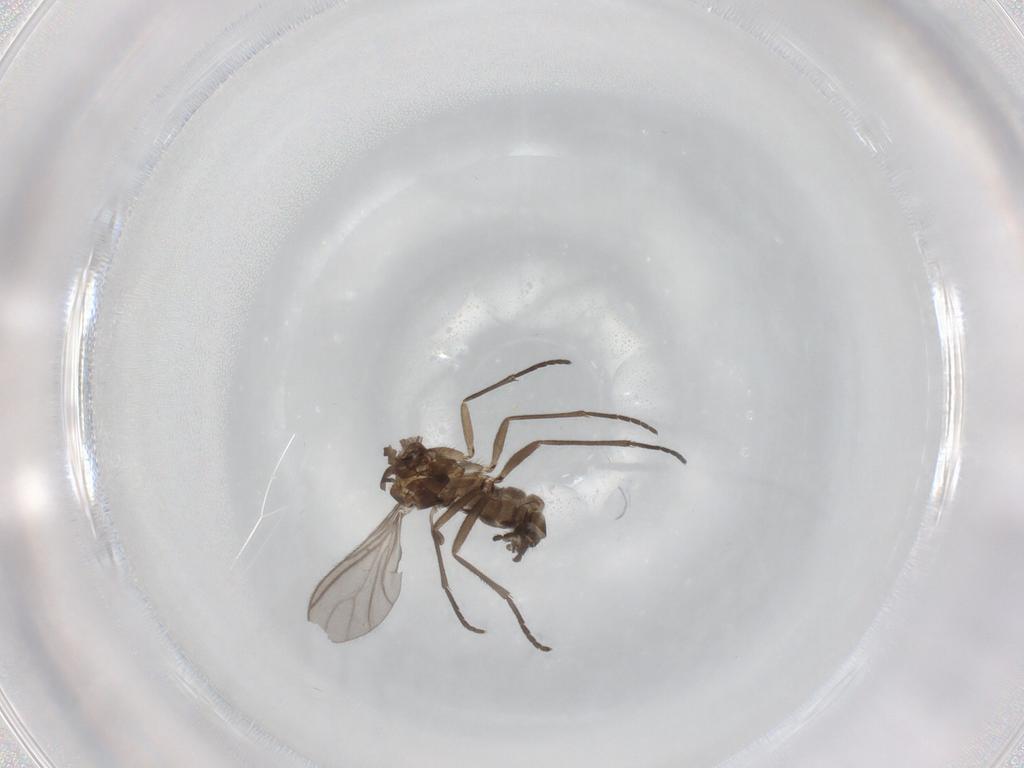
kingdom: Animalia
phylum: Arthropoda
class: Insecta
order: Diptera
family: Sciaridae
